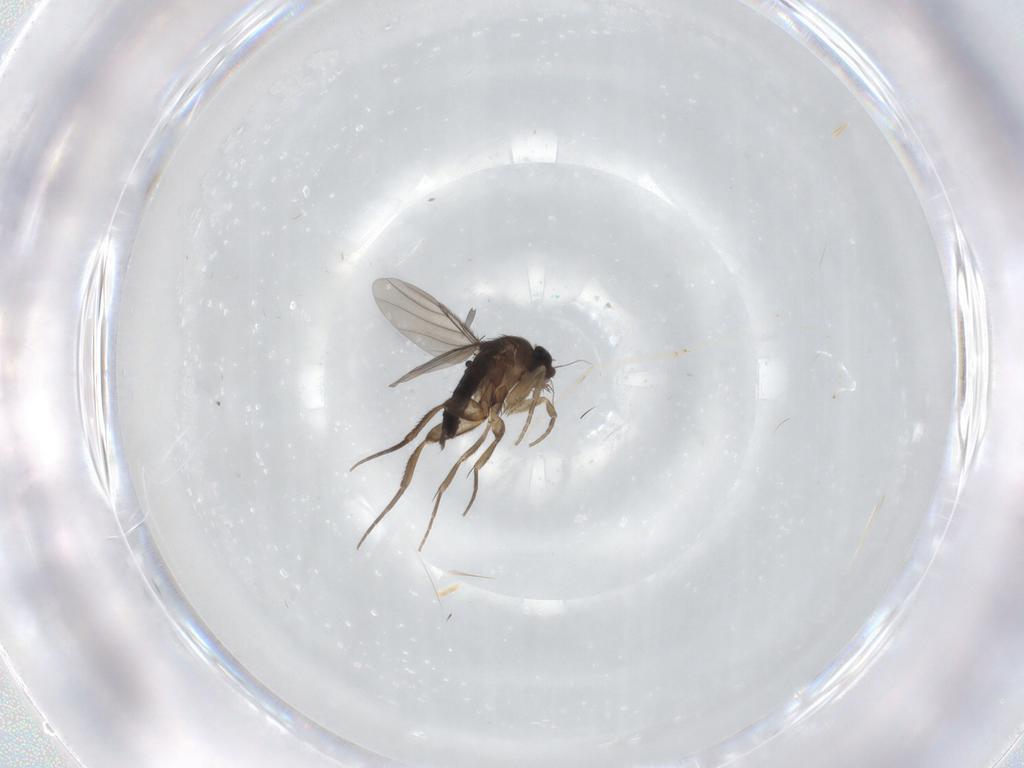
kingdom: Animalia
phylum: Arthropoda
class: Insecta
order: Diptera
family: Phoridae
